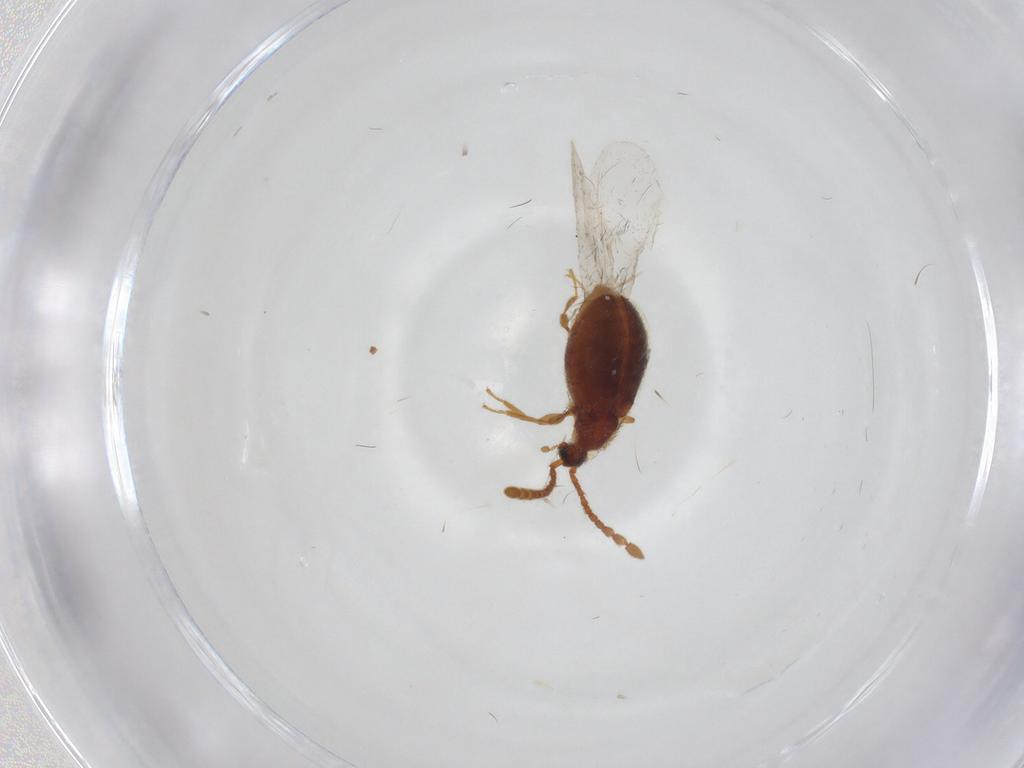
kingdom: Animalia
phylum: Arthropoda
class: Insecta
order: Coleoptera
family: Staphylinidae
